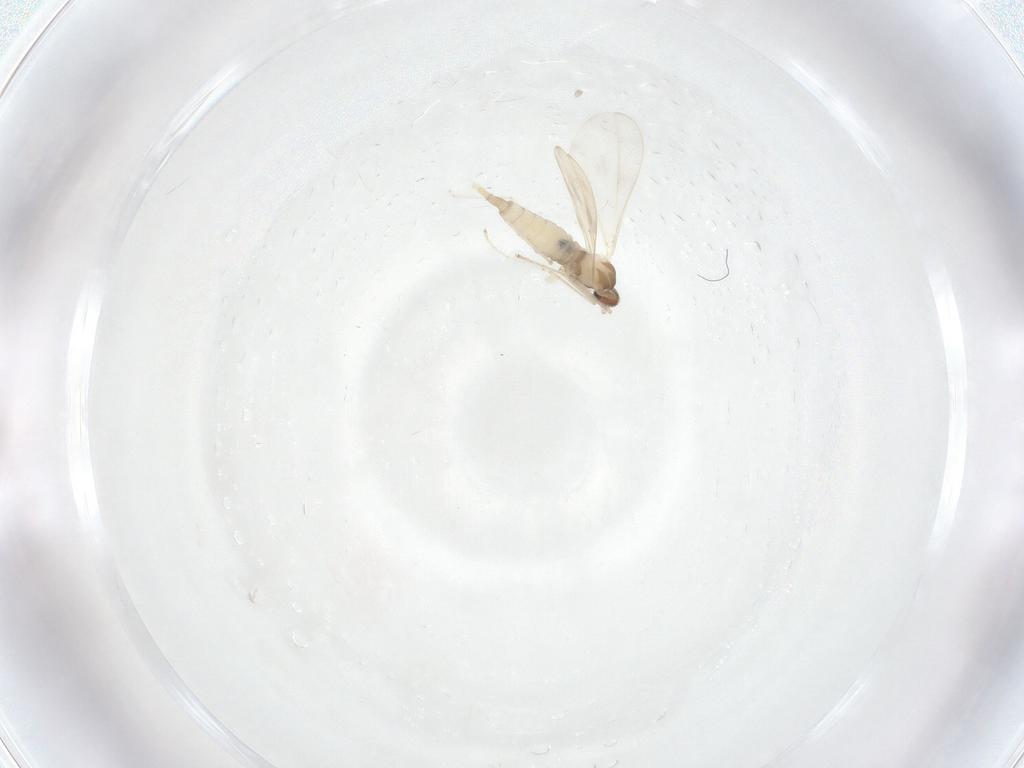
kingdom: Animalia
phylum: Arthropoda
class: Insecta
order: Diptera
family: Cecidomyiidae
